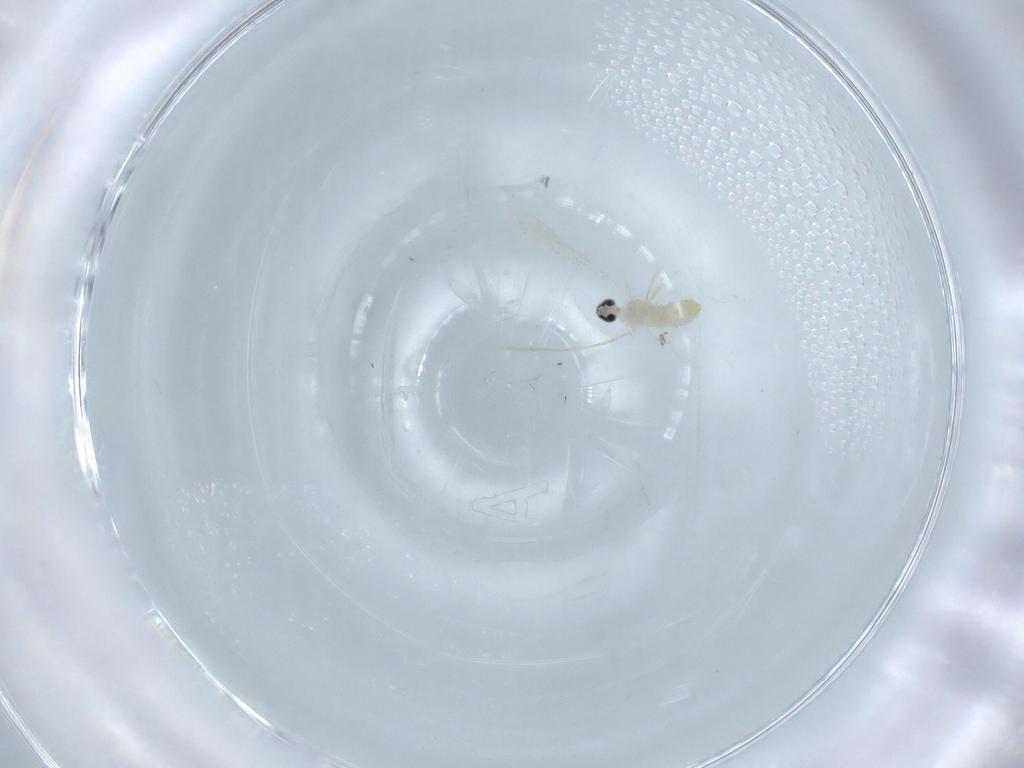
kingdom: Animalia
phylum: Arthropoda
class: Insecta
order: Diptera
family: Cecidomyiidae
